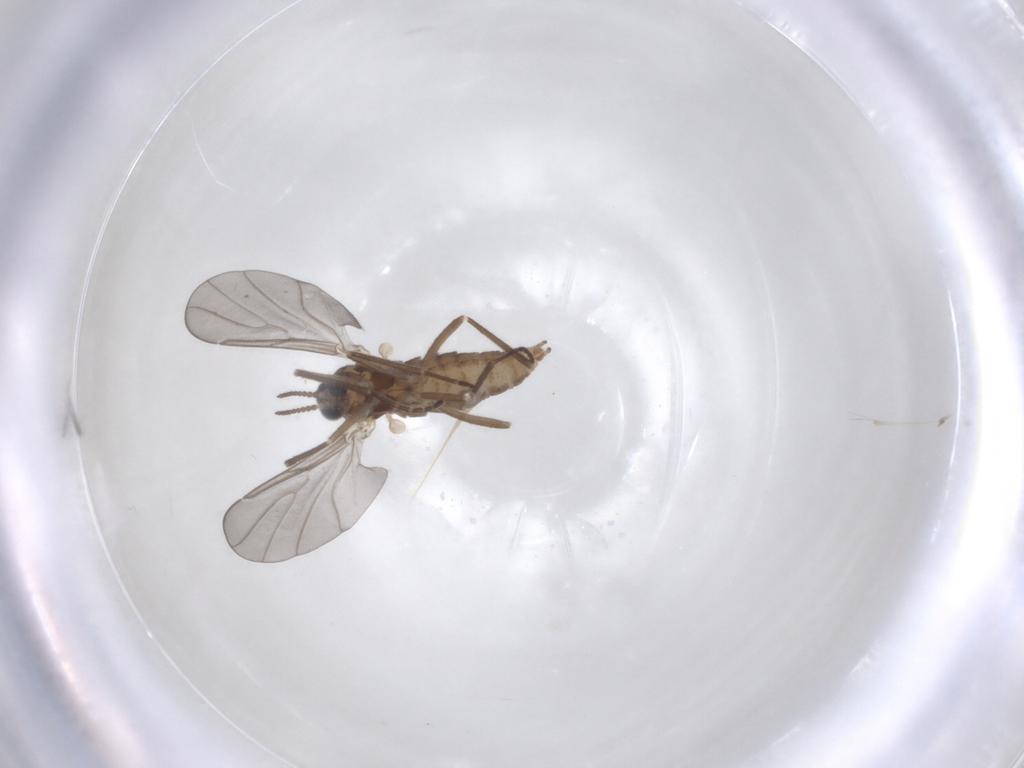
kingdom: Animalia
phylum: Arthropoda
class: Insecta
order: Diptera
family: Cecidomyiidae
